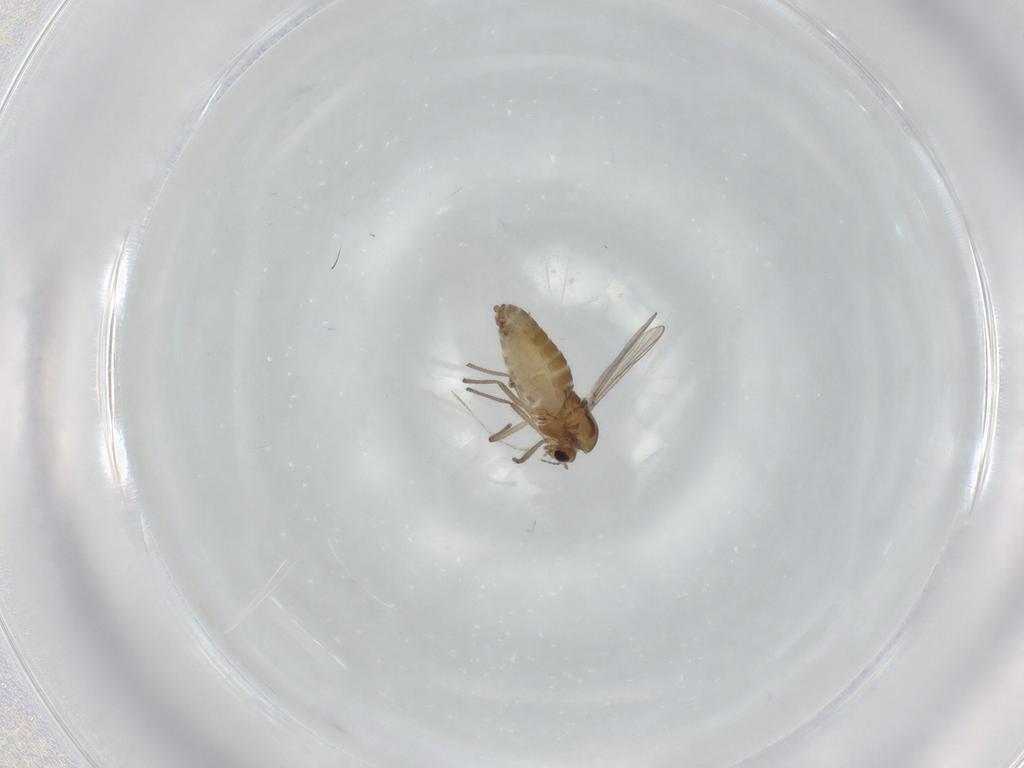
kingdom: Animalia
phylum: Arthropoda
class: Insecta
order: Diptera
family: Chironomidae
